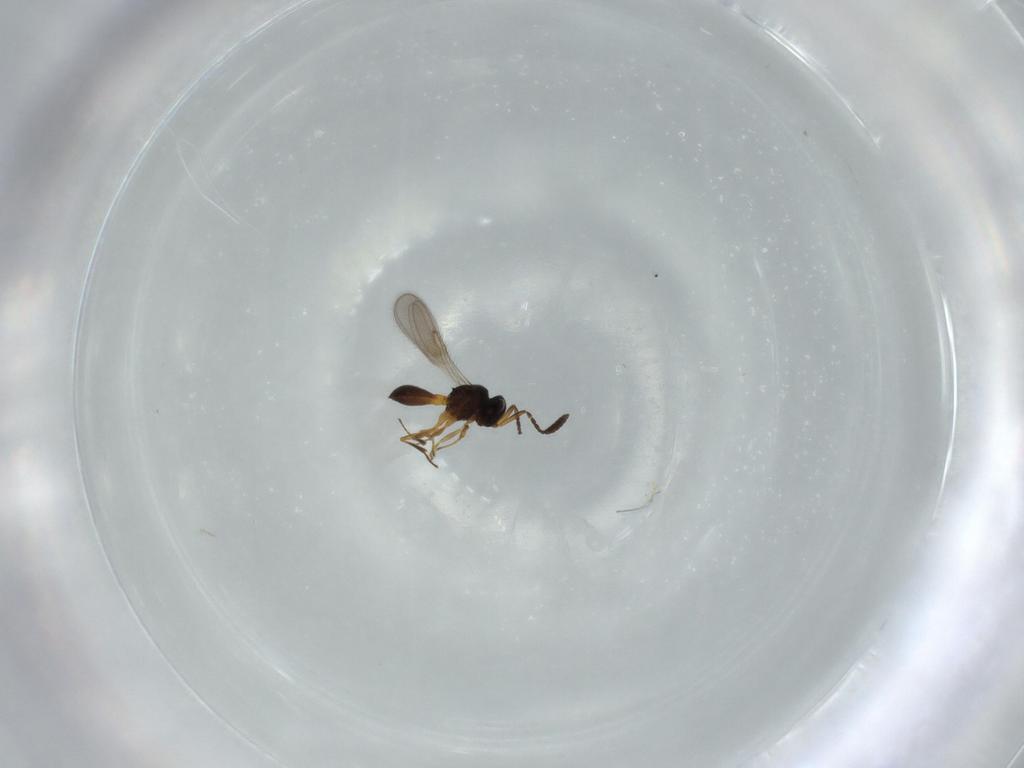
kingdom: Animalia
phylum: Arthropoda
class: Insecta
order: Hymenoptera
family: Scelionidae
